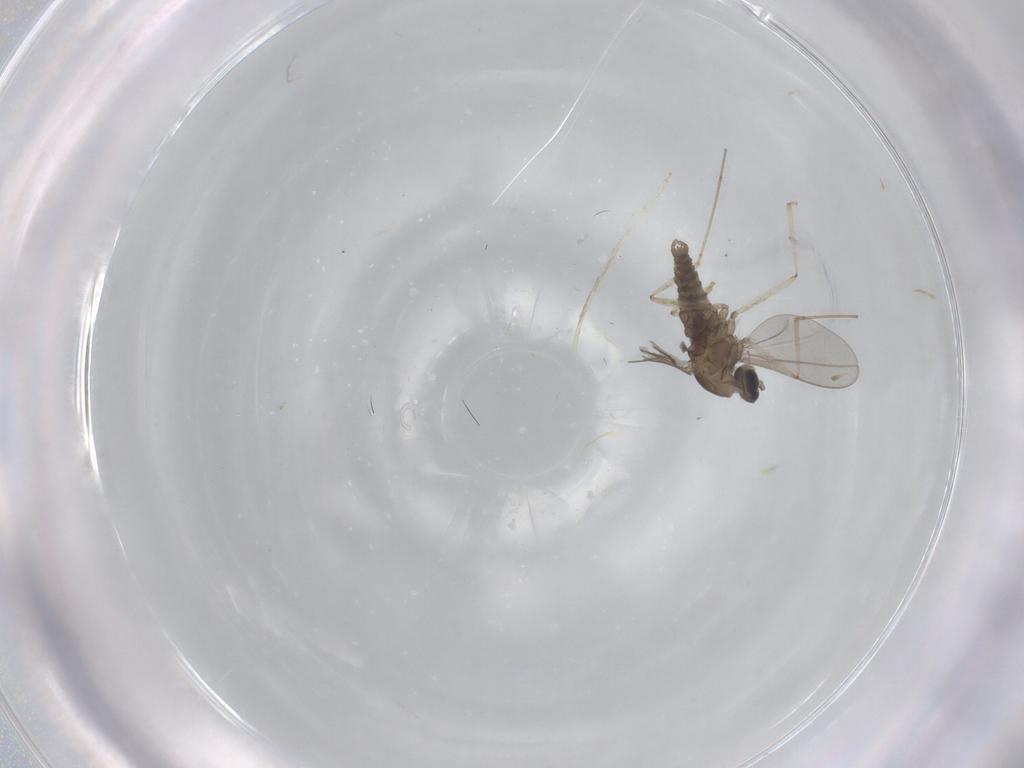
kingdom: Animalia
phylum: Arthropoda
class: Insecta
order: Diptera
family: Cecidomyiidae
